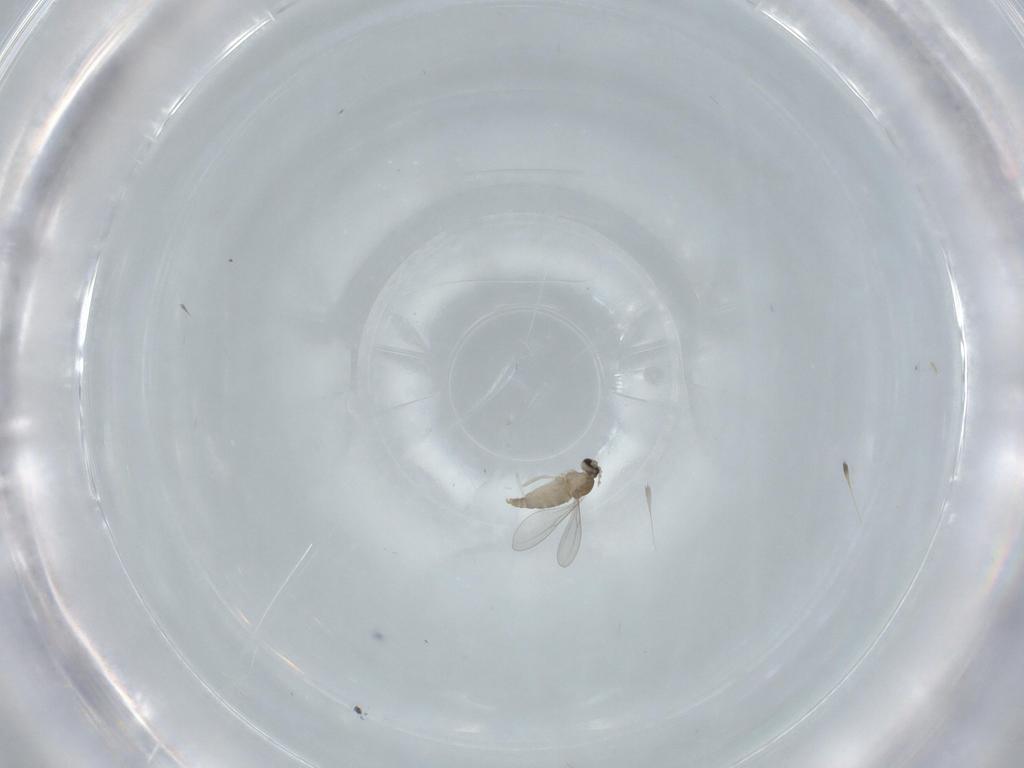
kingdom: Animalia
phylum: Arthropoda
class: Insecta
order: Diptera
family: Cecidomyiidae
